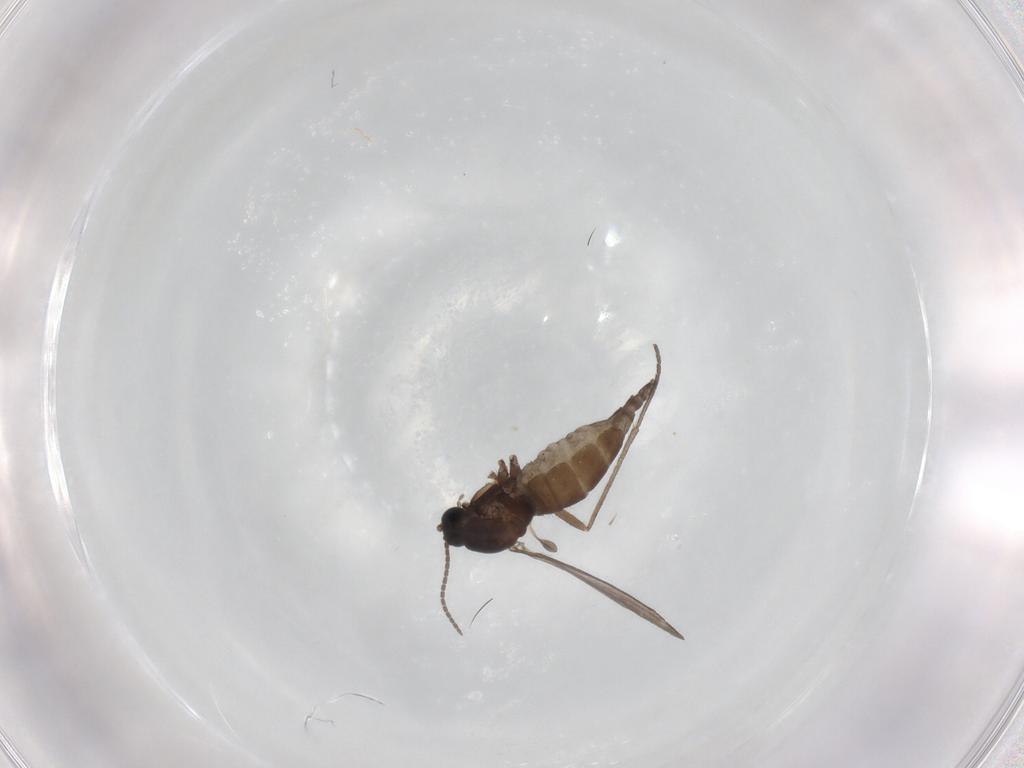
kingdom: Animalia
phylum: Arthropoda
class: Insecta
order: Diptera
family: Sciaridae
